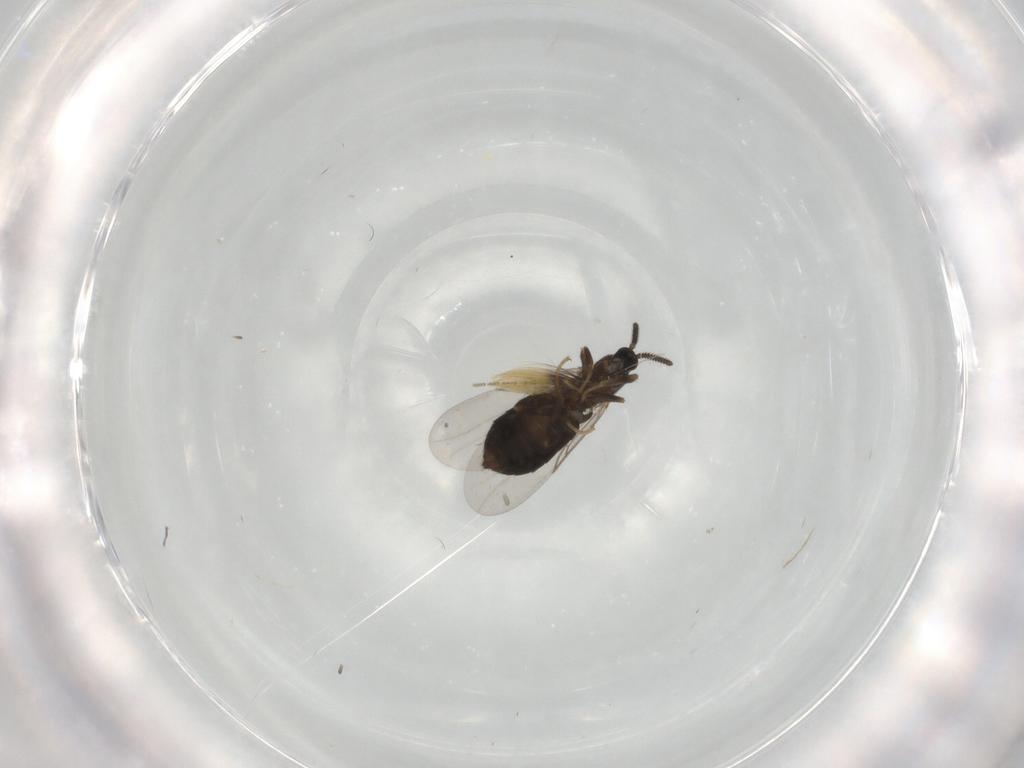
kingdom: Animalia
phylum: Arthropoda
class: Insecta
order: Diptera
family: Scatopsidae
